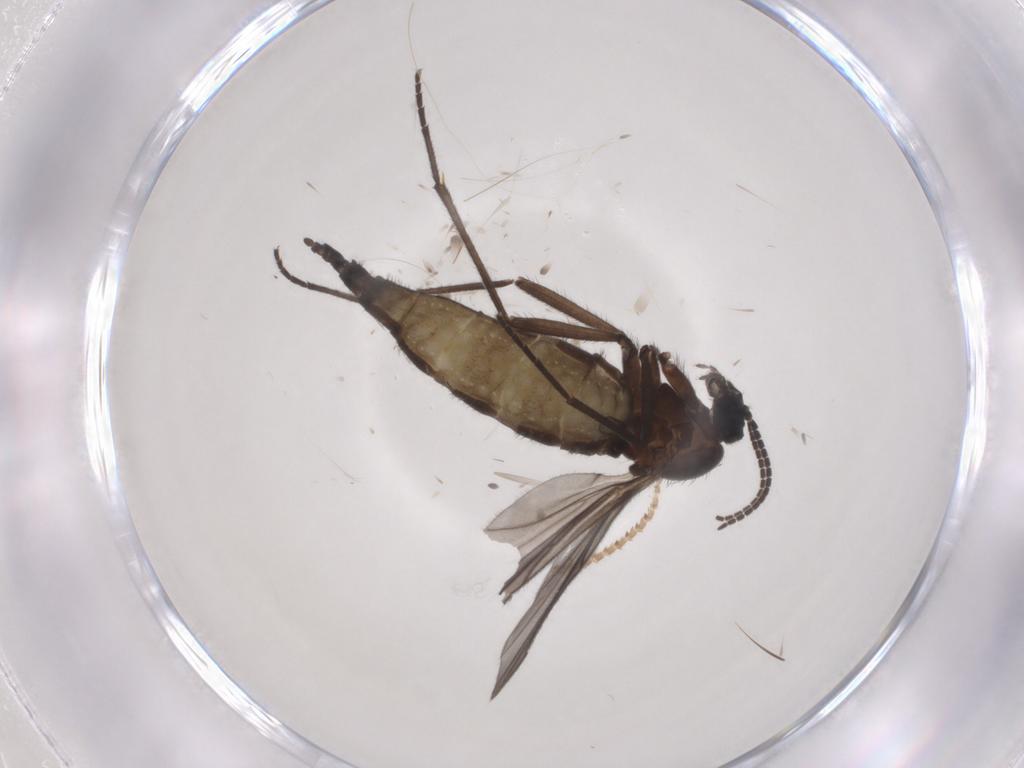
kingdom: Animalia
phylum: Arthropoda
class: Insecta
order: Diptera
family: Sciaridae
